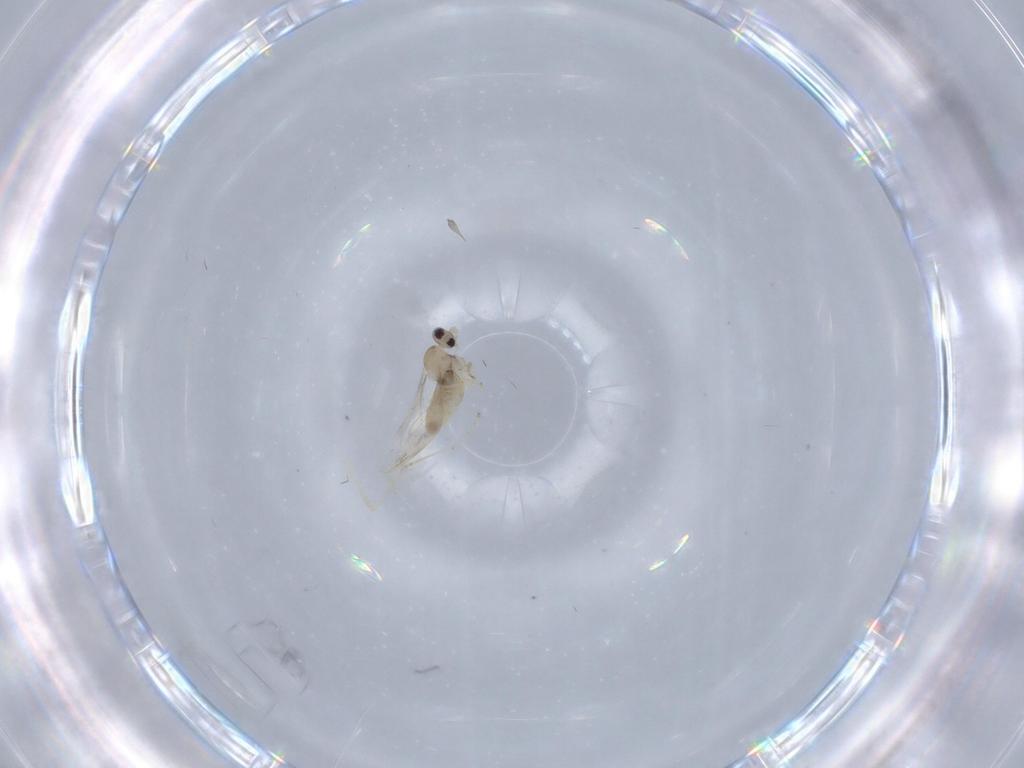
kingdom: Animalia
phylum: Arthropoda
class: Insecta
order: Diptera
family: Cecidomyiidae
